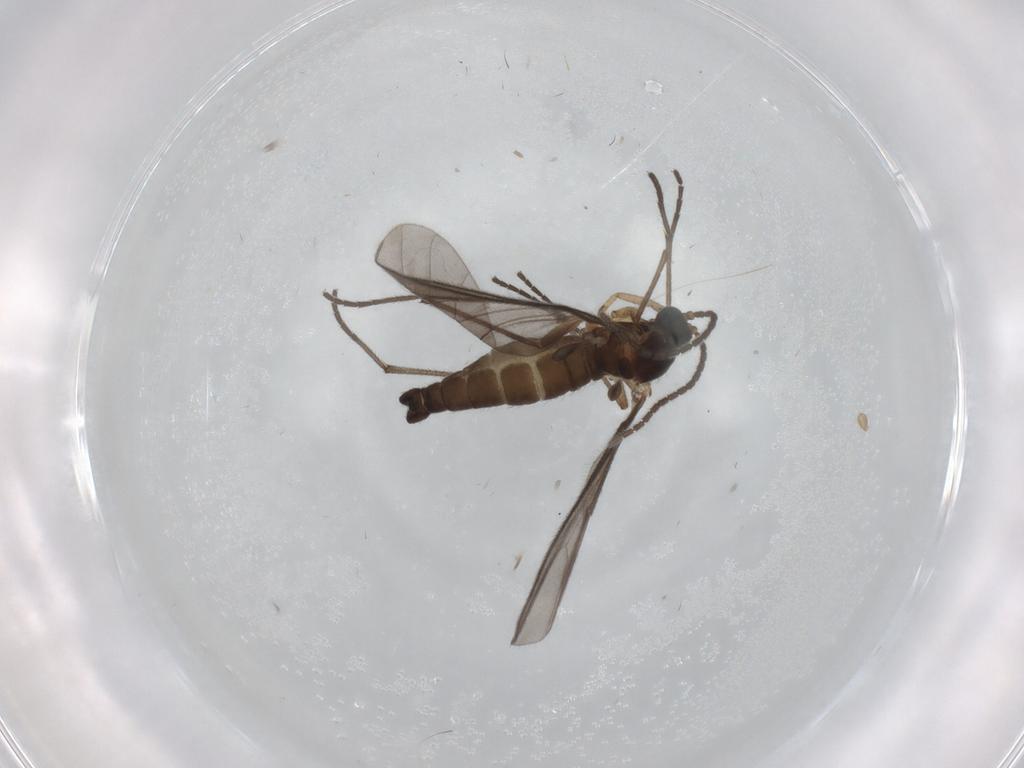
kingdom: Animalia
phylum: Arthropoda
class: Insecta
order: Diptera
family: Sciaridae
